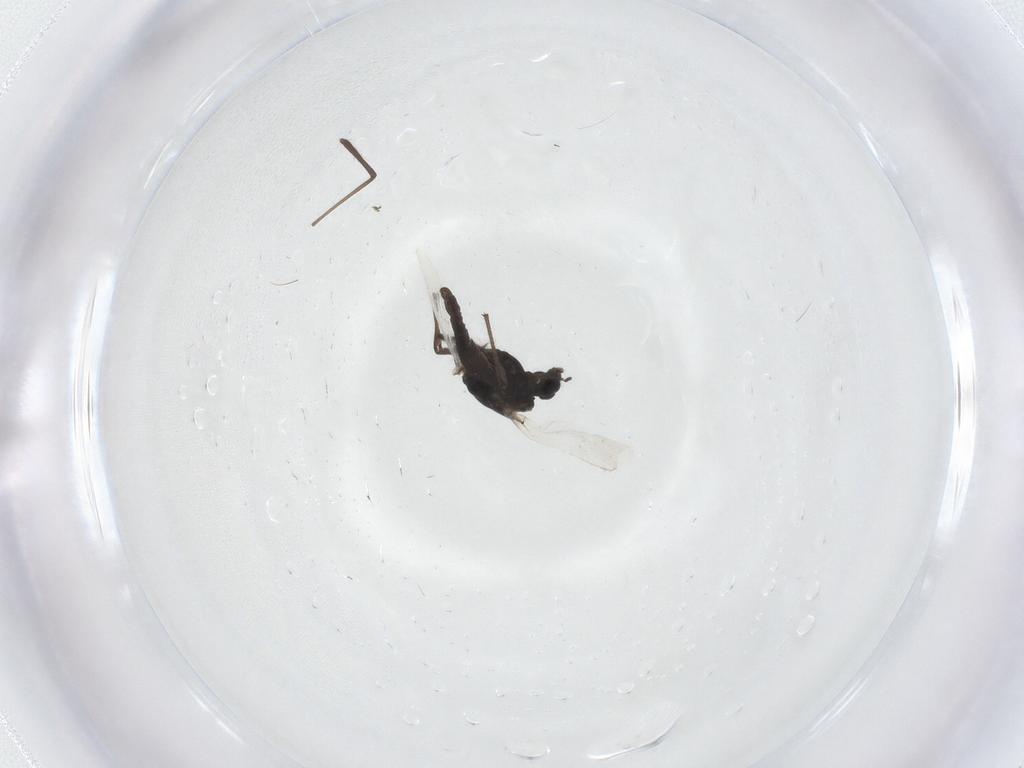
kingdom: Animalia
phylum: Arthropoda
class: Insecta
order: Diptera
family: Chironomidae
